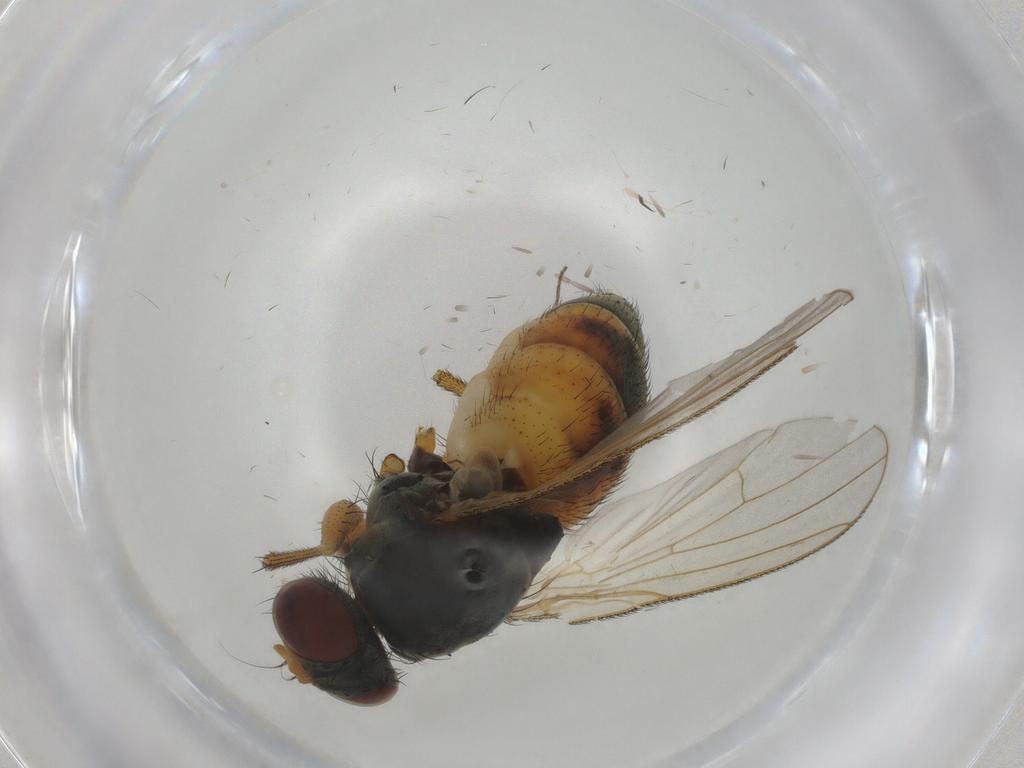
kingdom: Animalia
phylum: Arthropoda
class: Insecta
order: Diptera
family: Muscidae
